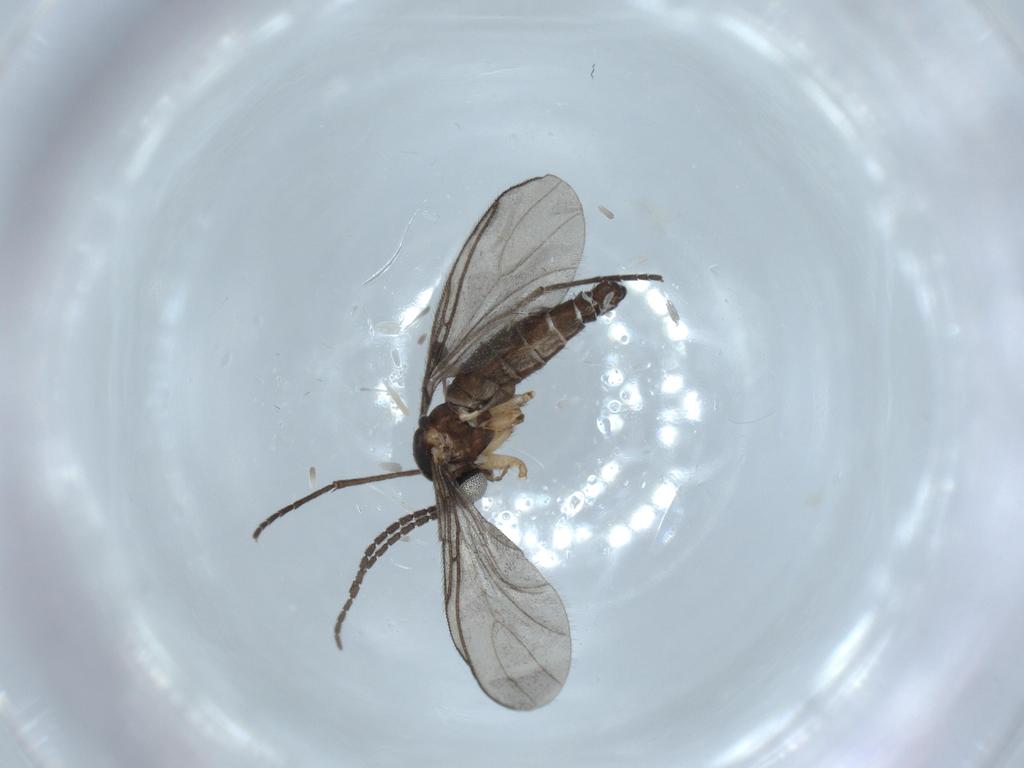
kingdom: Animalia
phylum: Arthropoda
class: Insecta
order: Diptera
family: Sciaridae
